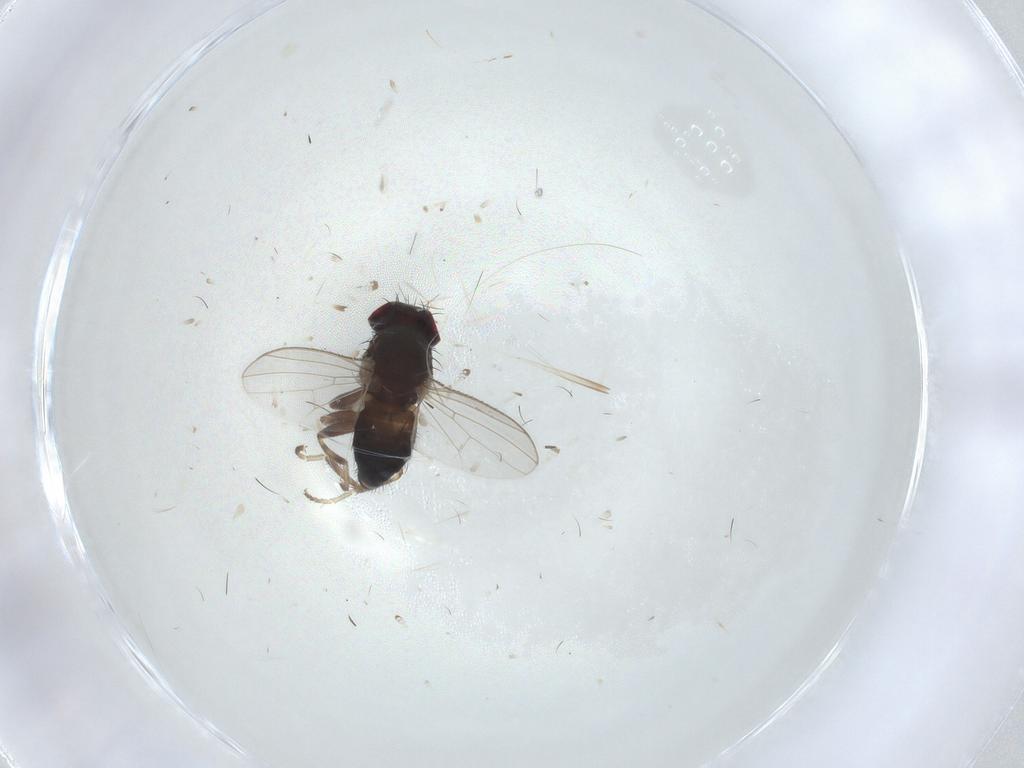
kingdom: Animalia
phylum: Arthropoda
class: Insecta
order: Diptera
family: Heleomyzidae
